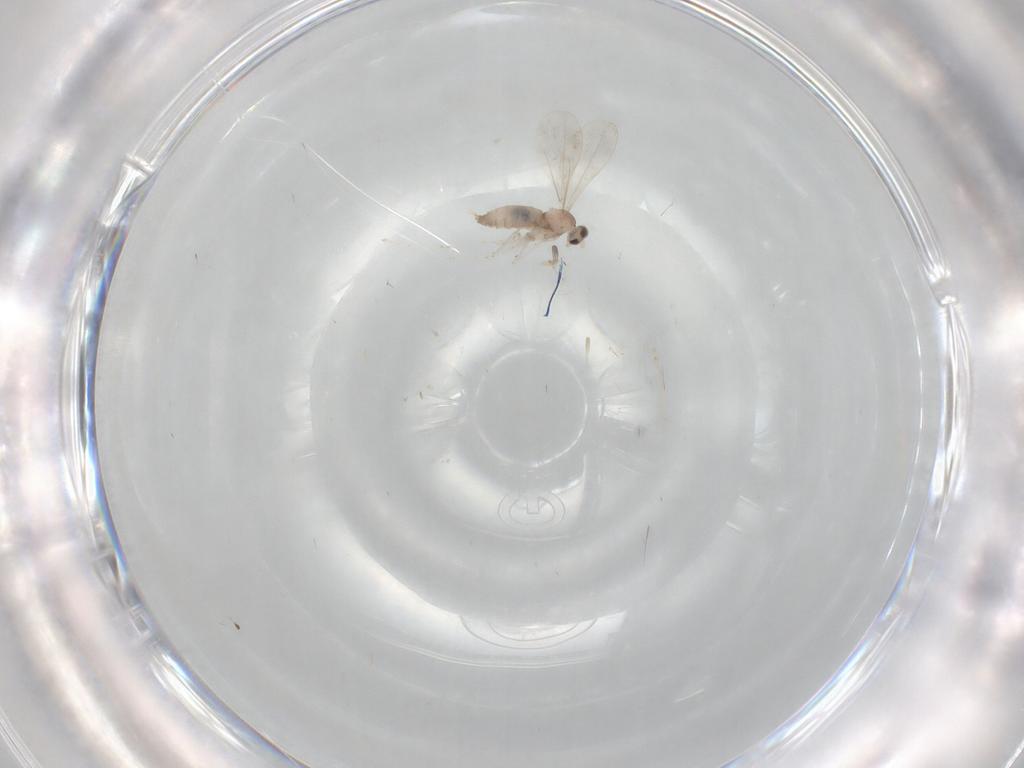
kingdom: Animalia
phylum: Arthropoda
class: Insecta
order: Diptera
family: Cecidomyiidae
